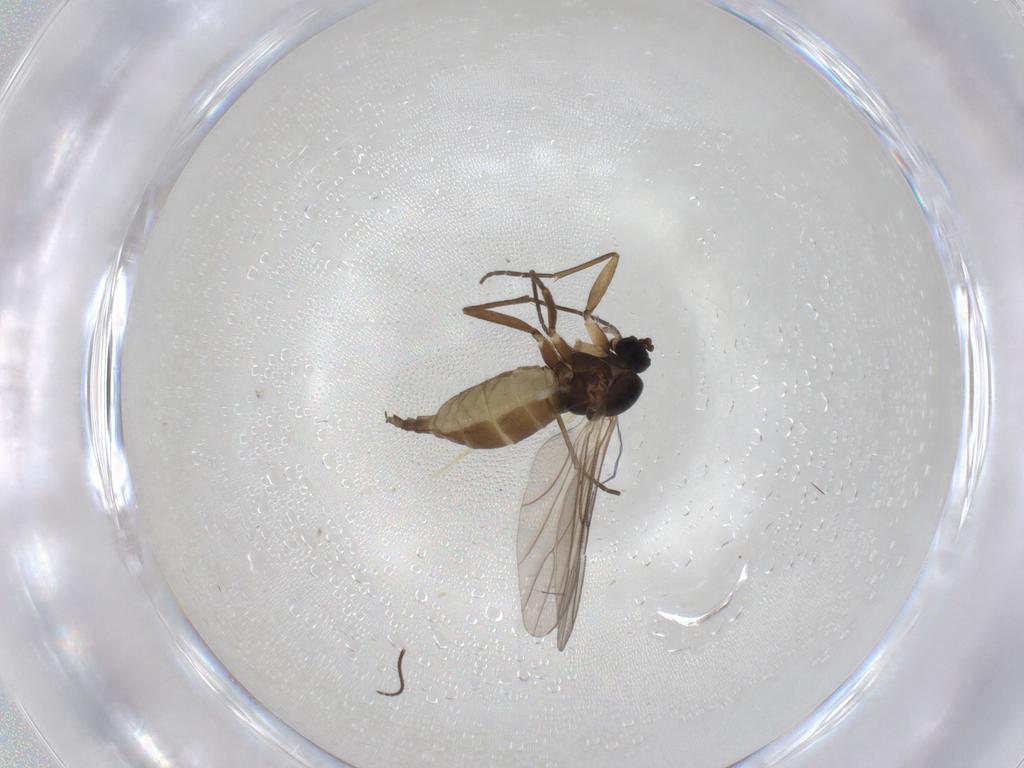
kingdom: Animalia
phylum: Arthropoda
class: Insecta
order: Diptera
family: Sciaridae
